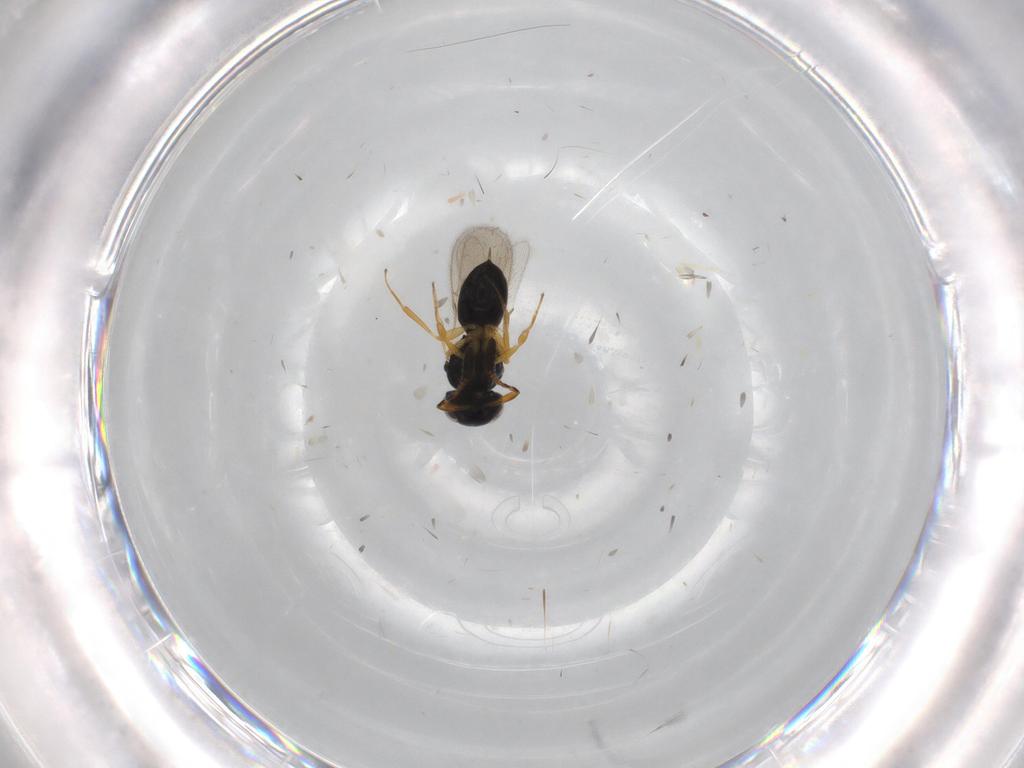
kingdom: Animalia
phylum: Arthropoda
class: Insecta
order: Hymenoptera
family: Scelionidae
